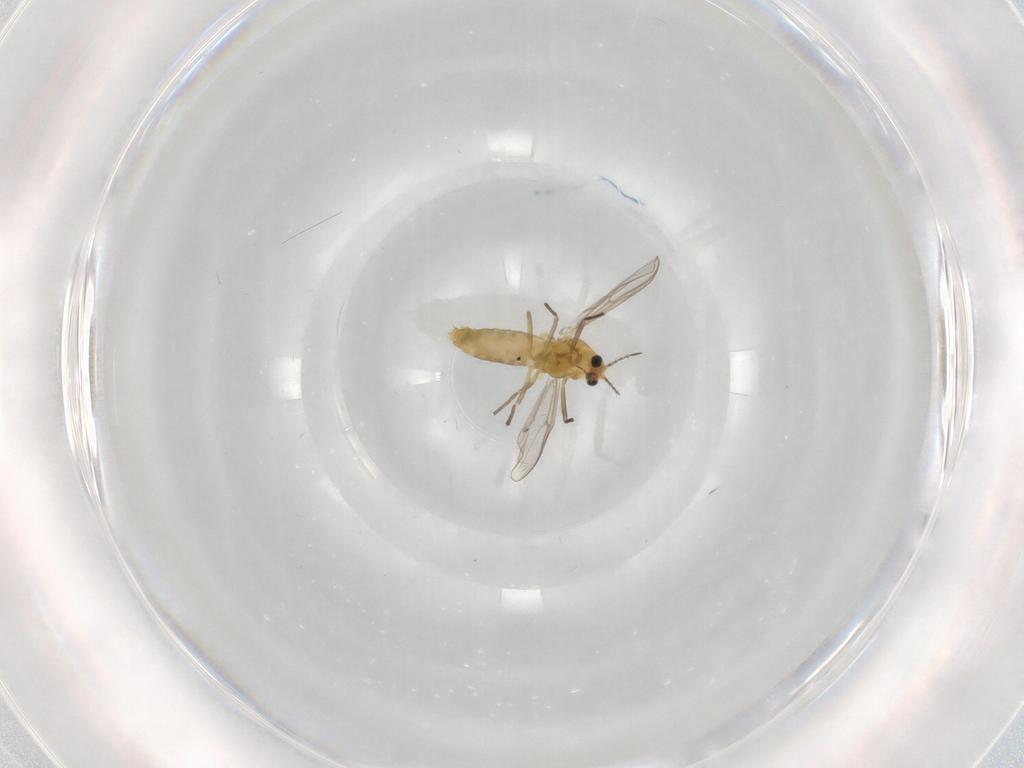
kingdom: Animalia
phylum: Arthropoda
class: Insecta
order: Diptera
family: Chironomidae
